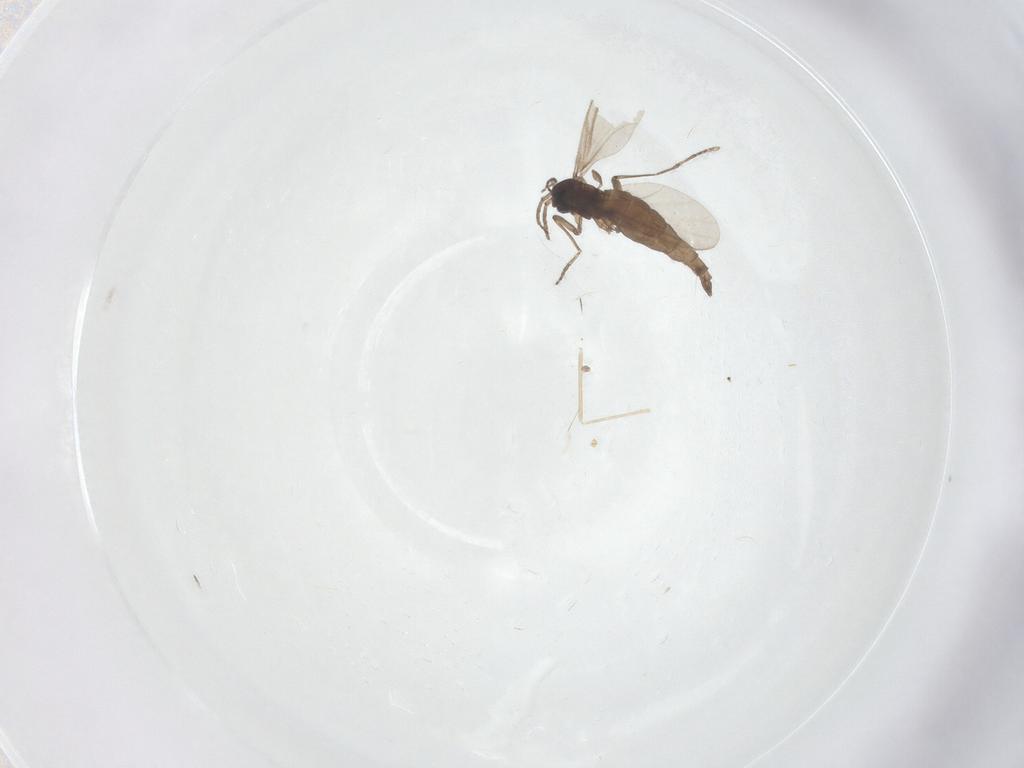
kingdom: Animalia
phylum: Arthropoda
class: Insecta
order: Diptera
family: Sciaridae
